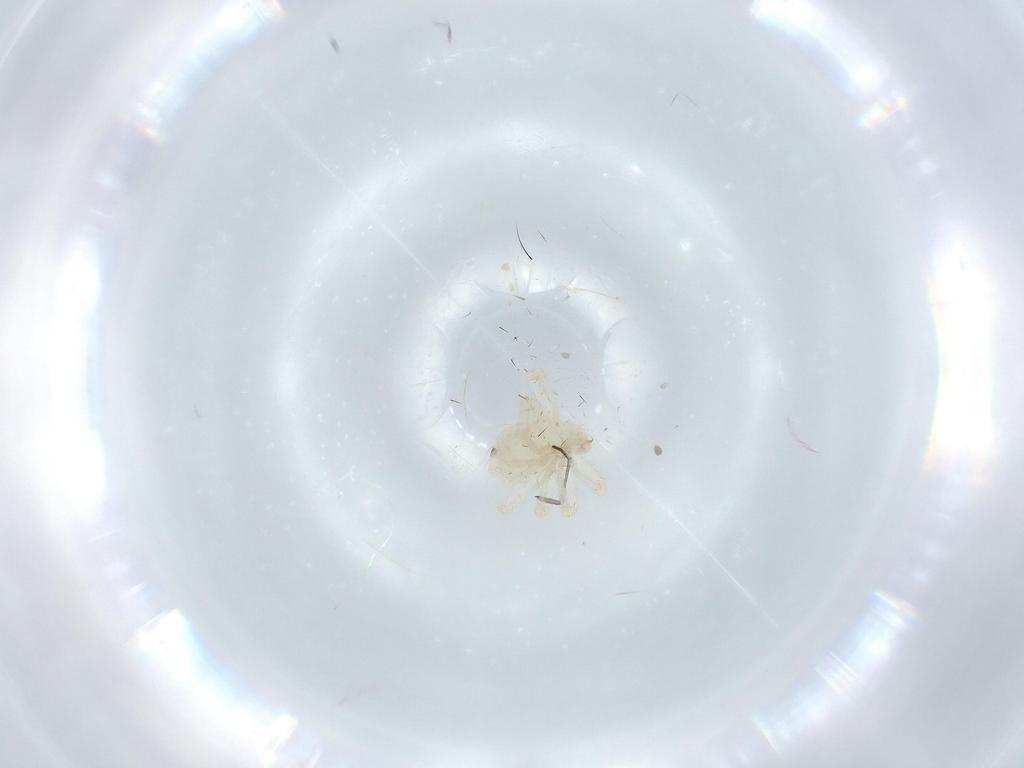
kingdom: Animalia
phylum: Arthropoda
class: Arachnida
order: Trombidiformes
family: Anystidae
